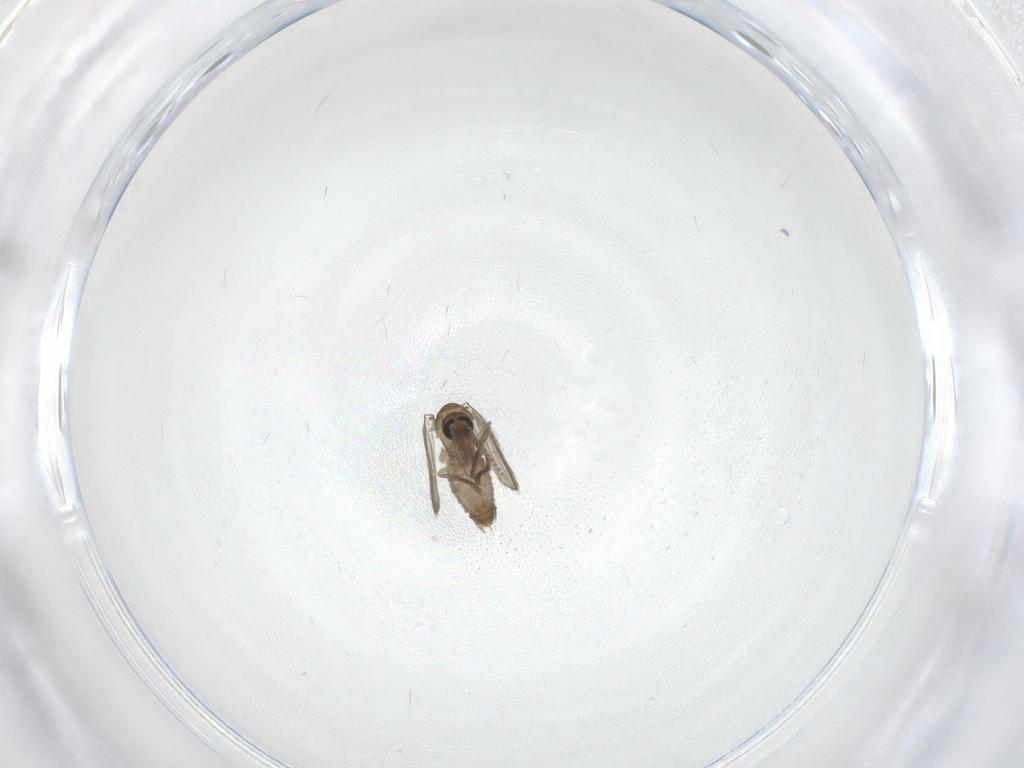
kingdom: Animalia
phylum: Arthropoda
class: Insecta
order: Diptera
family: Psychodidae
